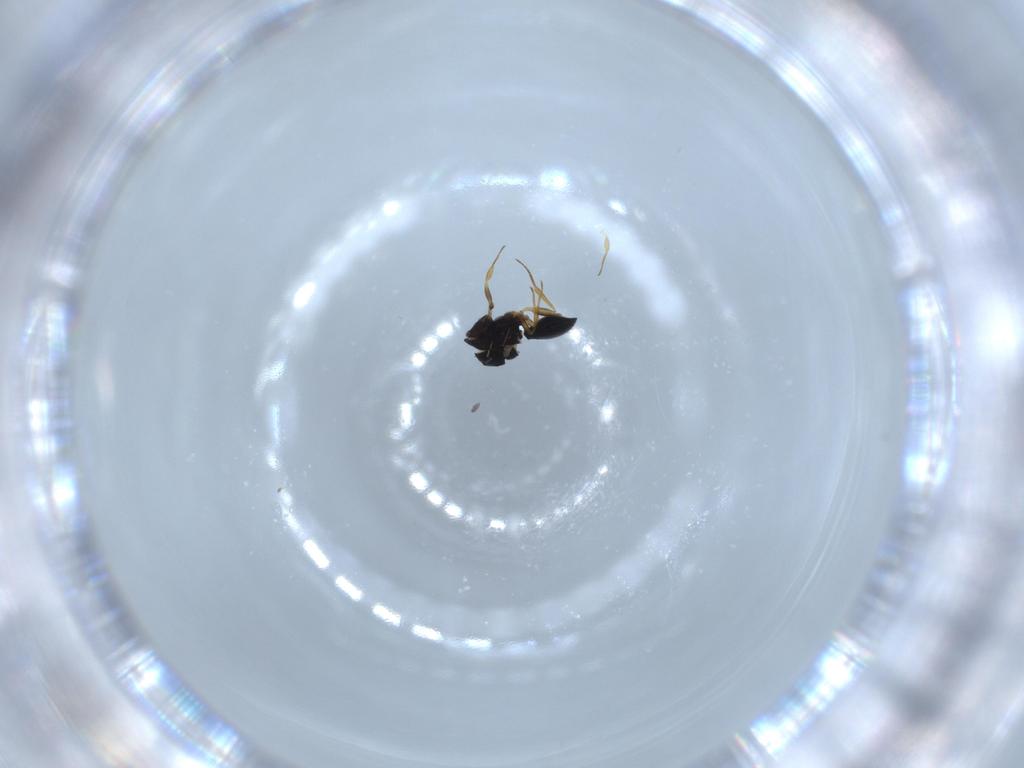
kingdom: Animalia
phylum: Arthropoda
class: Insecta
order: Hymenoptera
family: Scelionidae
